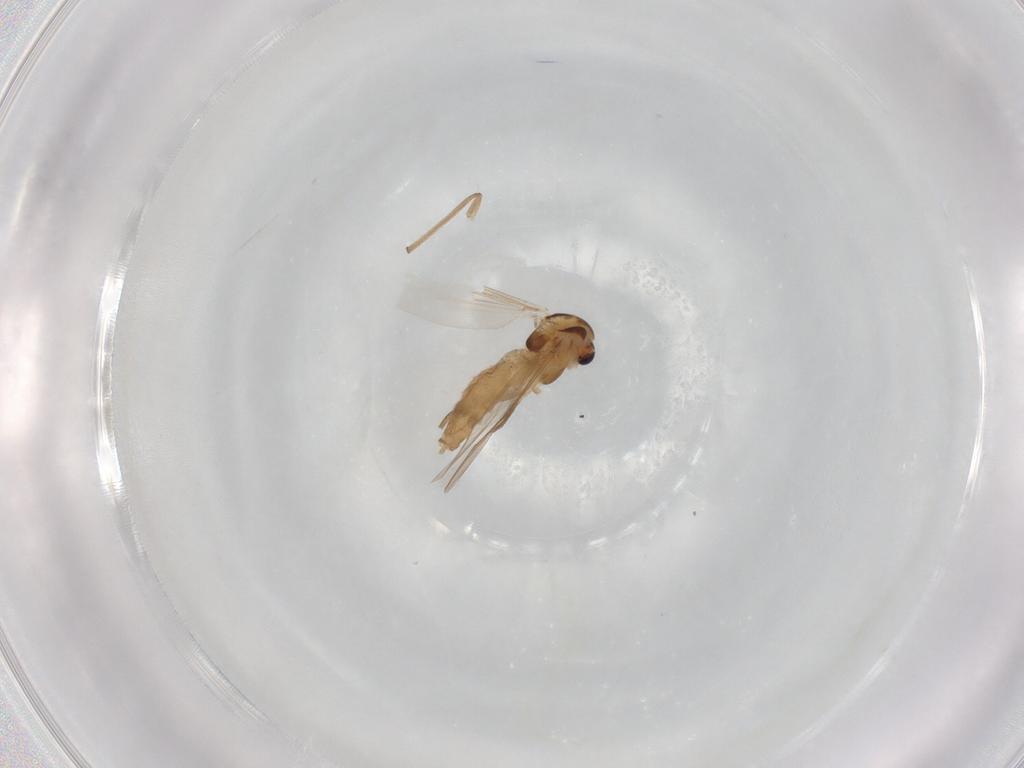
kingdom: Animalia
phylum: Arthropoda
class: Insecta
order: Diptera
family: Chironomidae
